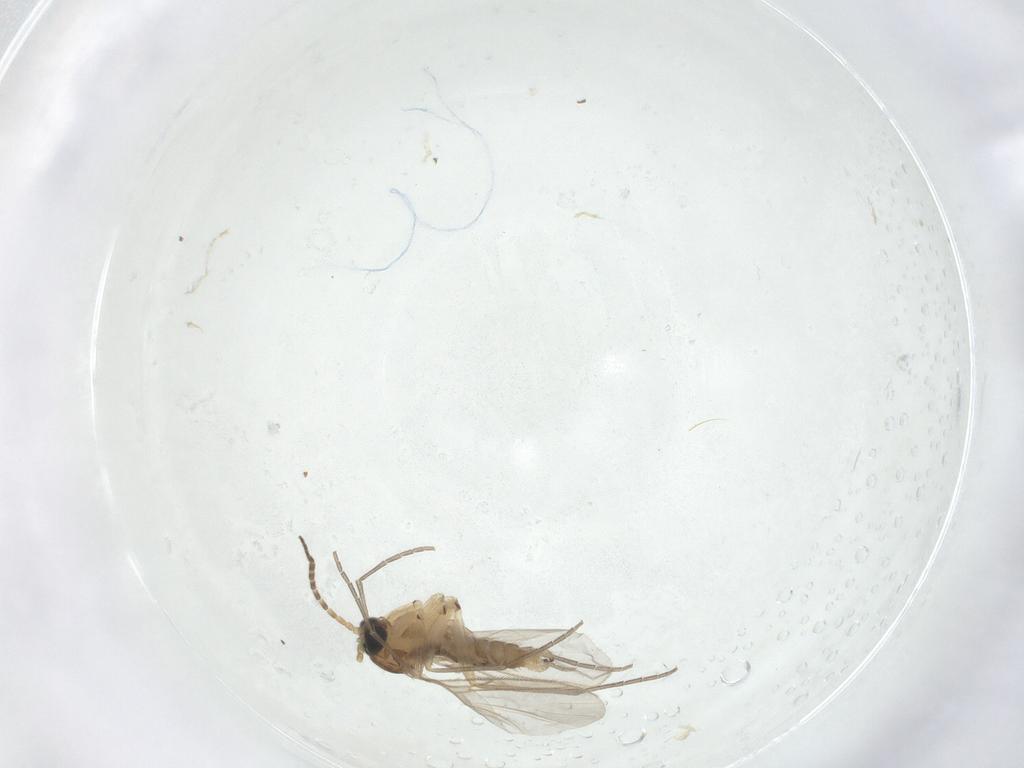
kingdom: Animalia
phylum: Arthropoda
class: Insecta
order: Diptera
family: Sciaridae
